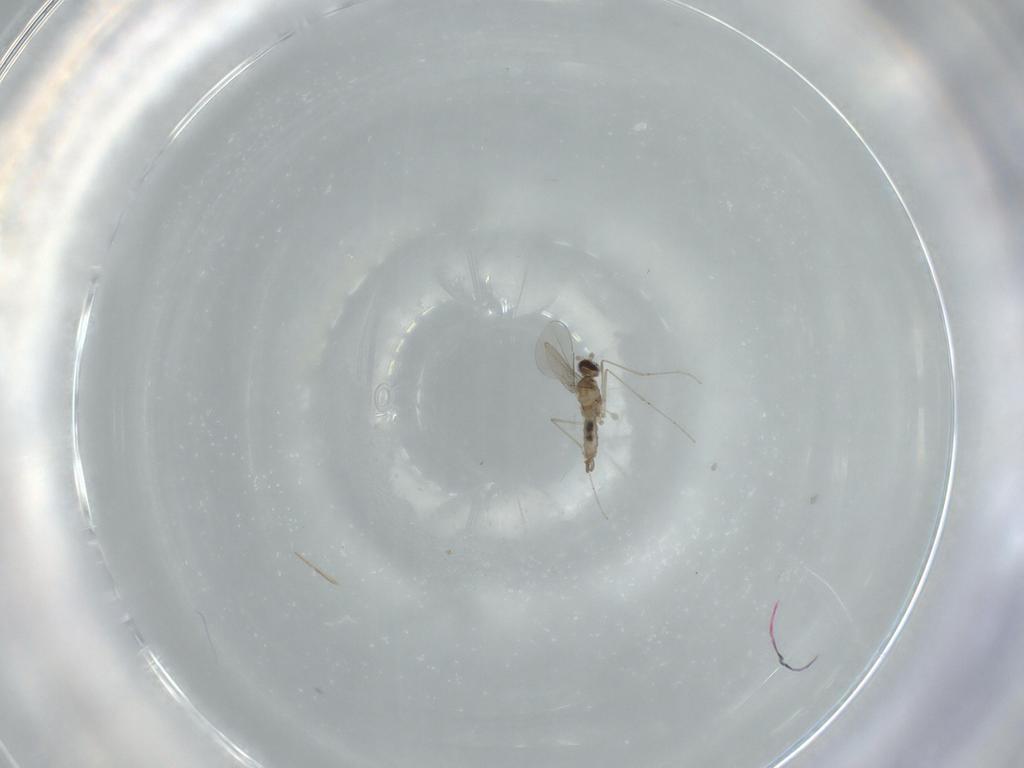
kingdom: Animalia
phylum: Arthropoda
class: Insecta
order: Diptera
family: Cecidomyiidae
